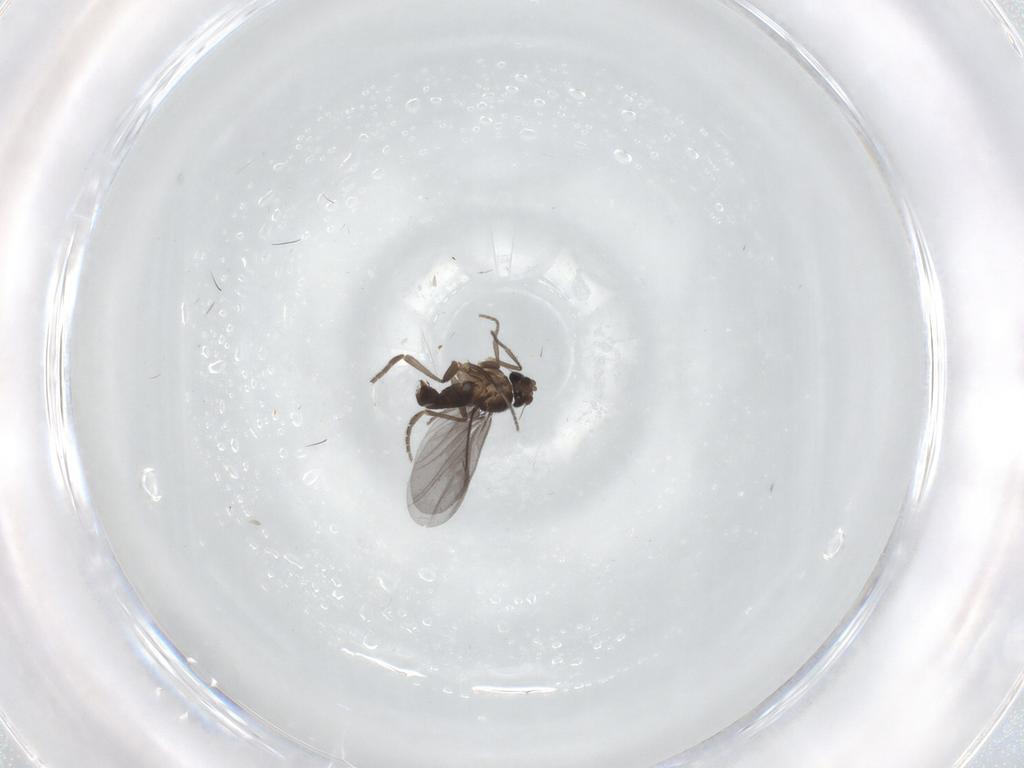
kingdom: Animalia
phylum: Arthropoda
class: Insecta
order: Diptera
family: Phoridae
